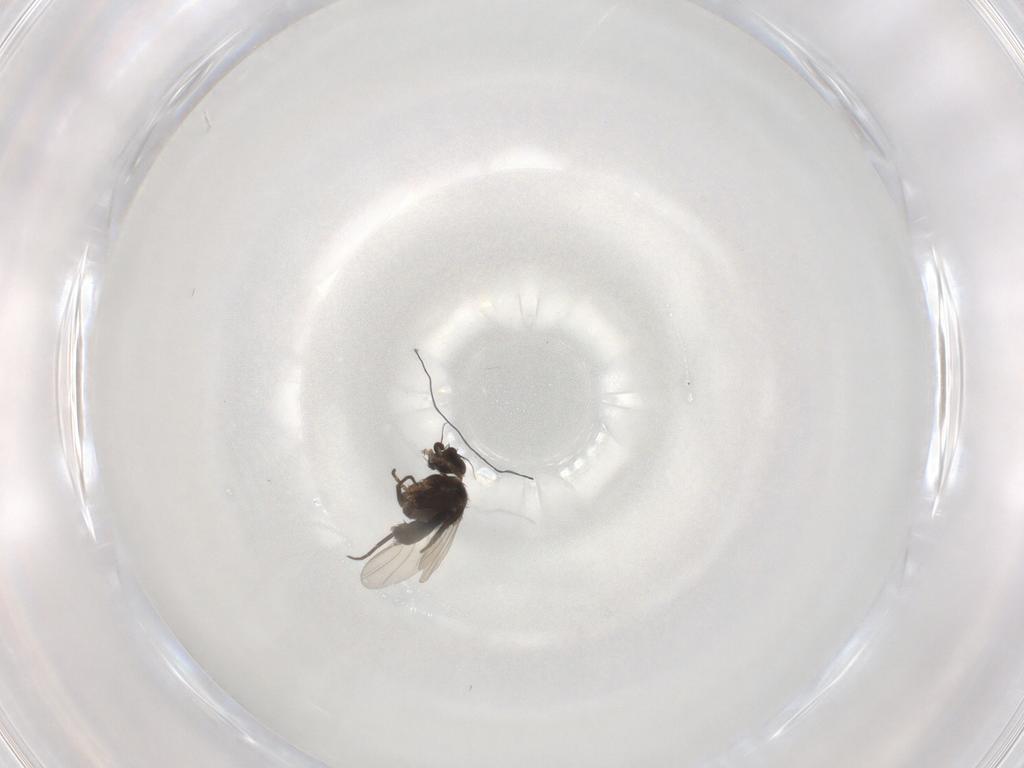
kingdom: Animalia
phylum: Arthropoda
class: Insecta
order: Diptera
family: Phoridae
